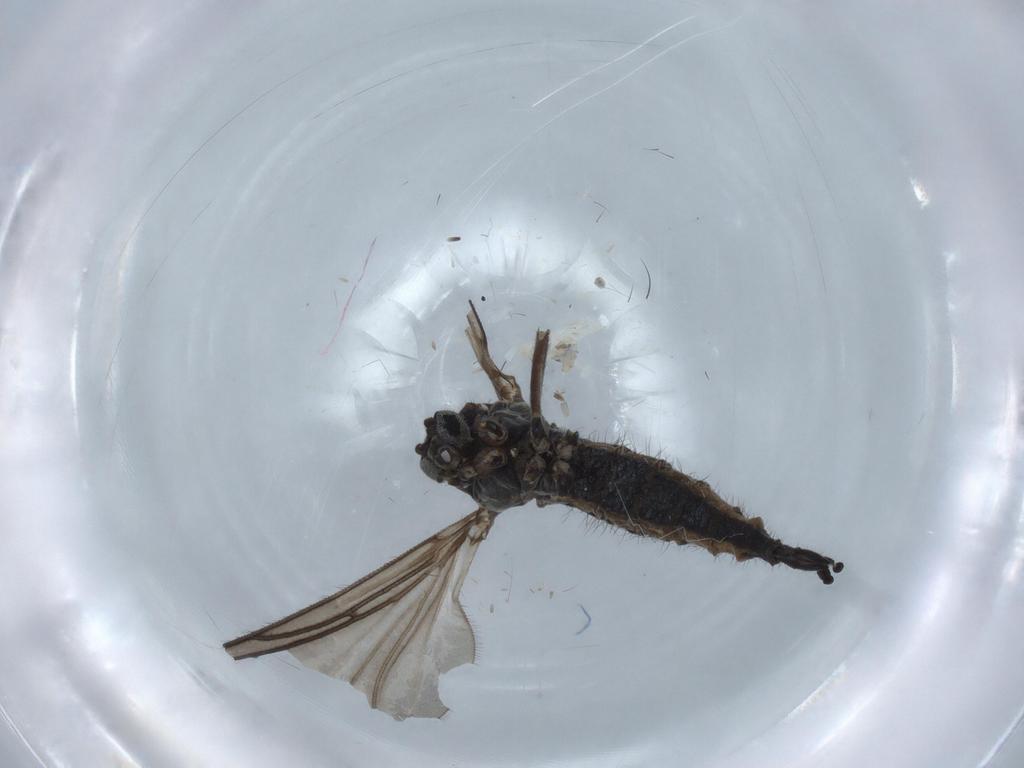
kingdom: Animalia
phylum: Arthropoda
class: Insecta
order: Diptera
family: Sciaridae
